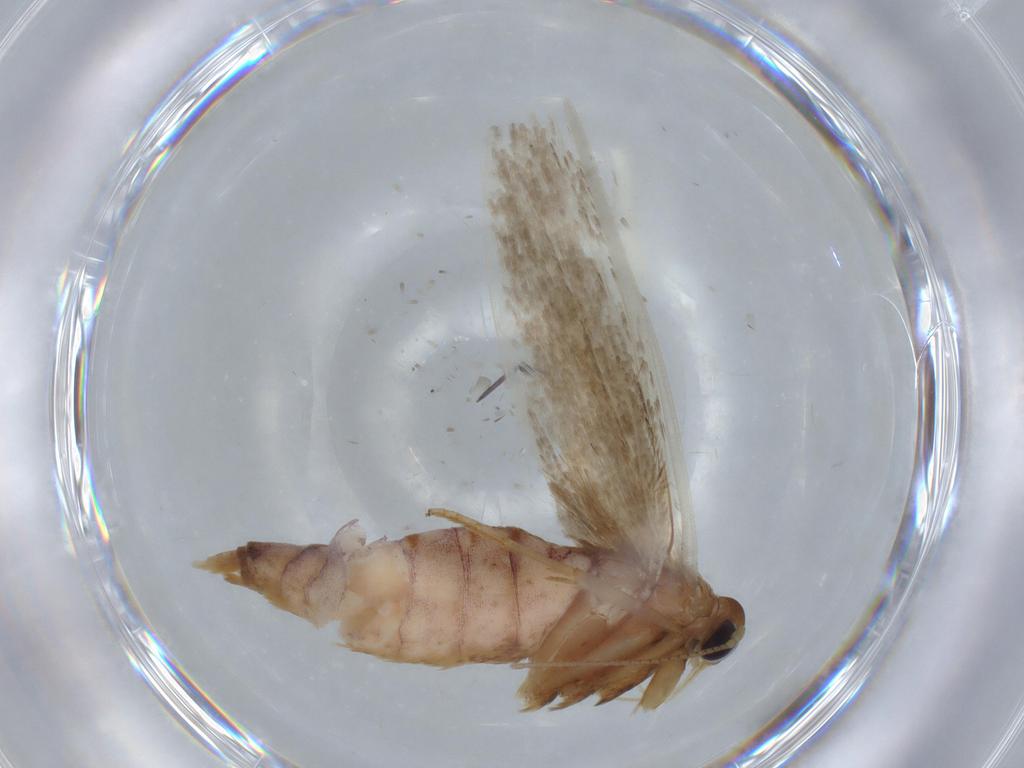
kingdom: Animalia
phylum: Arthropoda
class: Insecta
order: Lepidoptera
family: Blastobasidae
